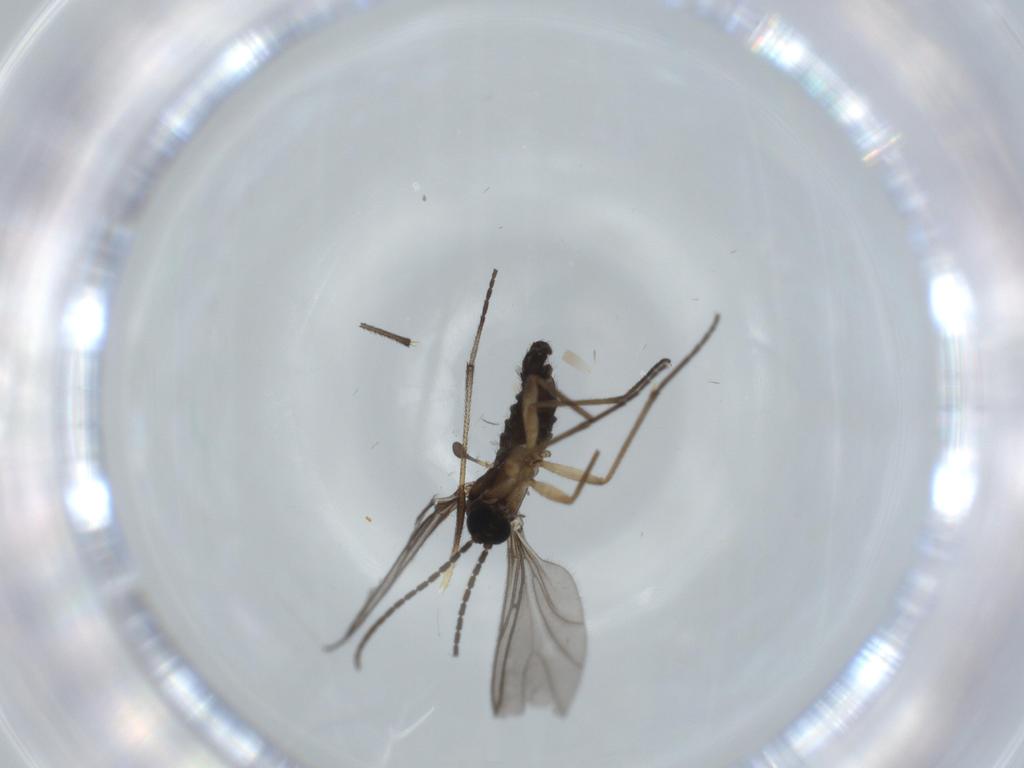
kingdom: Animalia
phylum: Arthropoda
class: Insecta
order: Diptera
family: Sciaridae
